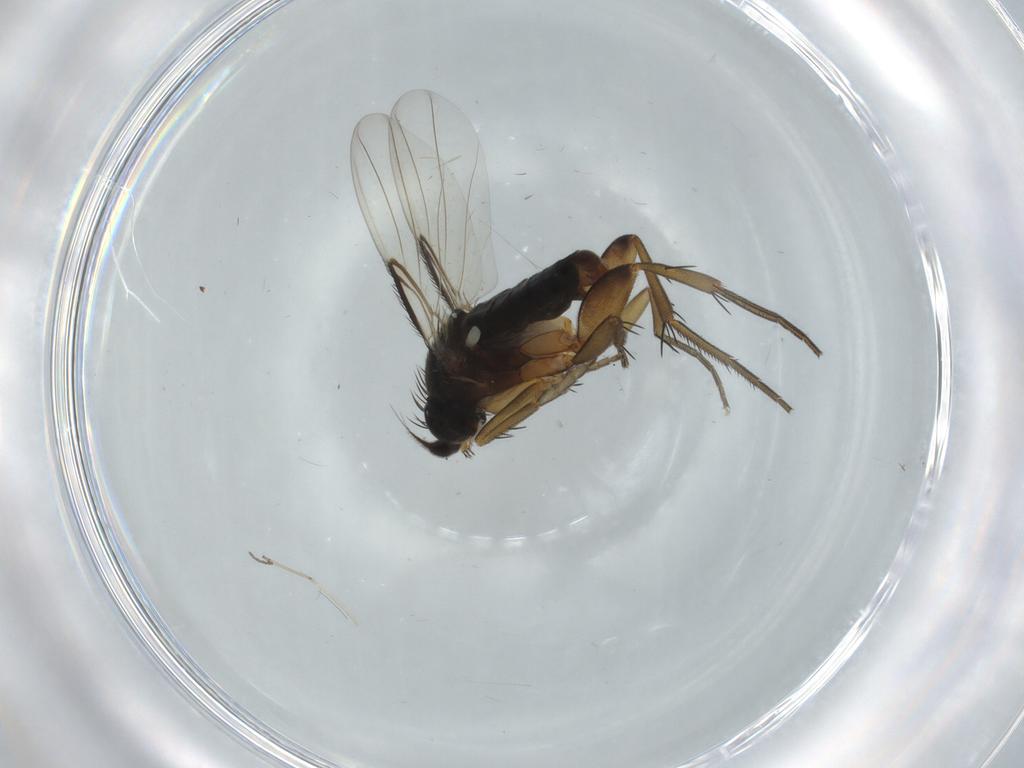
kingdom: Animalia
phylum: Arthropoda
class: Insecta
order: Diptera
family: Phoridae
